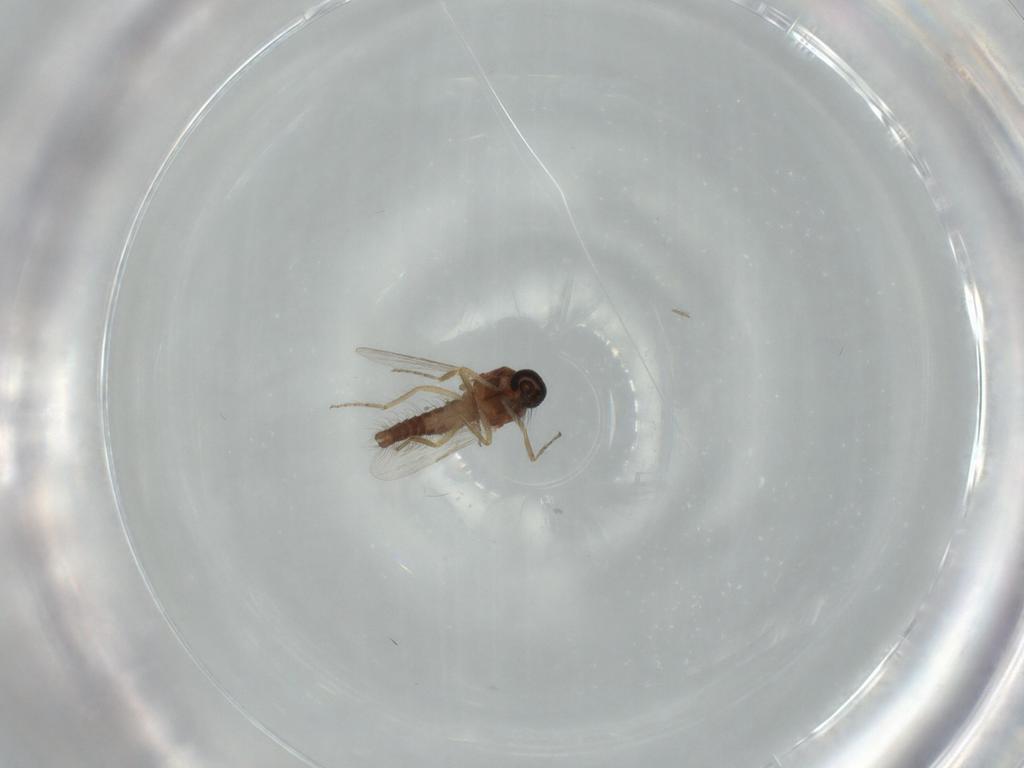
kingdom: Animalia
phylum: Arthropoda
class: Insecta
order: Diptera
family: Ceratopogonidae
